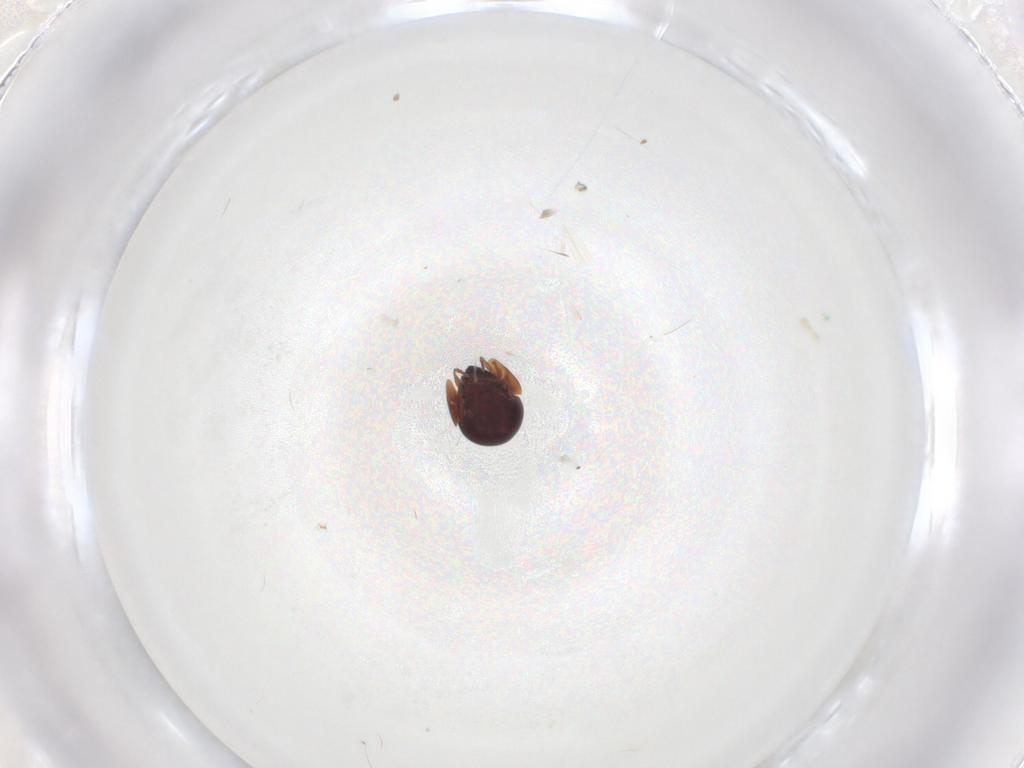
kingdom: Animalia
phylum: Arthropoda
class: Arachnida
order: Sarcoptiformes
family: Galumnidae
